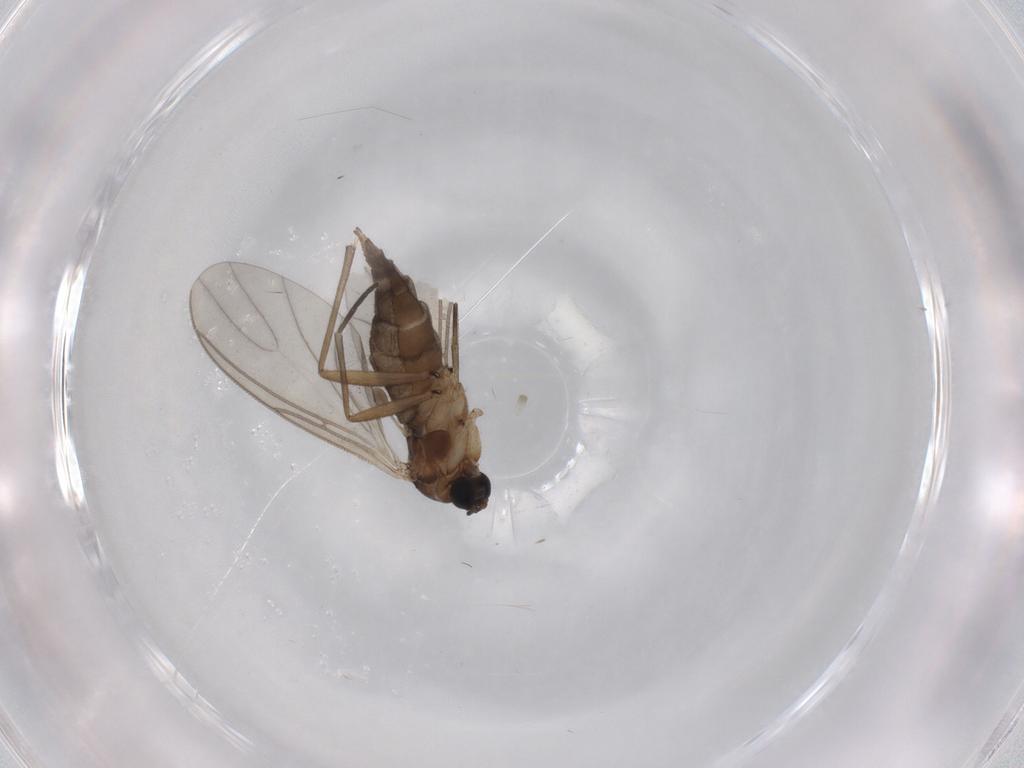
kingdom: Animalia
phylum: Arthropoda
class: Insecta
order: Diptera
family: Sciaridae
